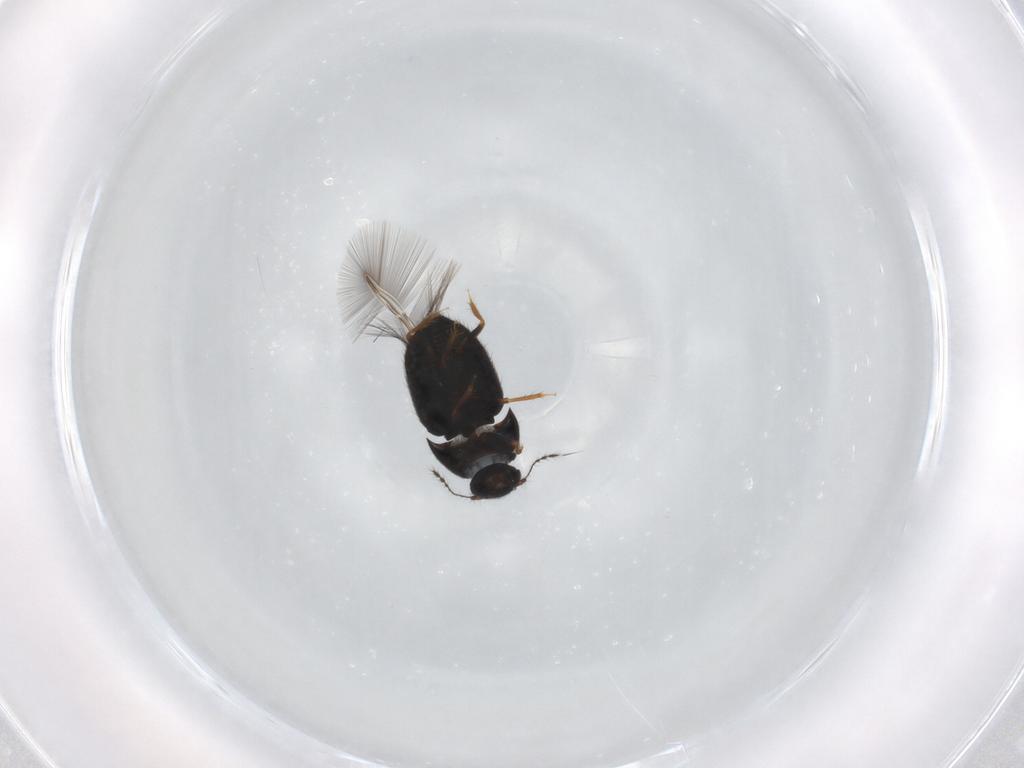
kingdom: Animalia
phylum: Arthropoda
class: Insecta
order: Coleoptera
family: Ptiliidae
